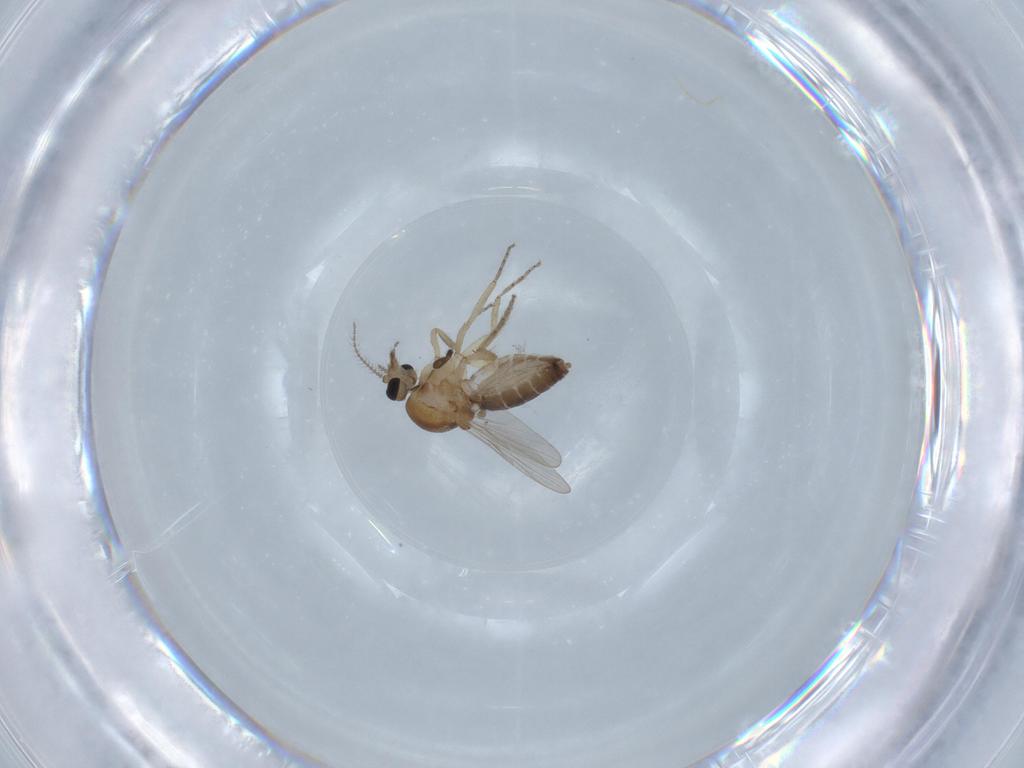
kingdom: Animalia
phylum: Arthropoda
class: Insecta
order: Diptera
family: Ceratopogonidae
